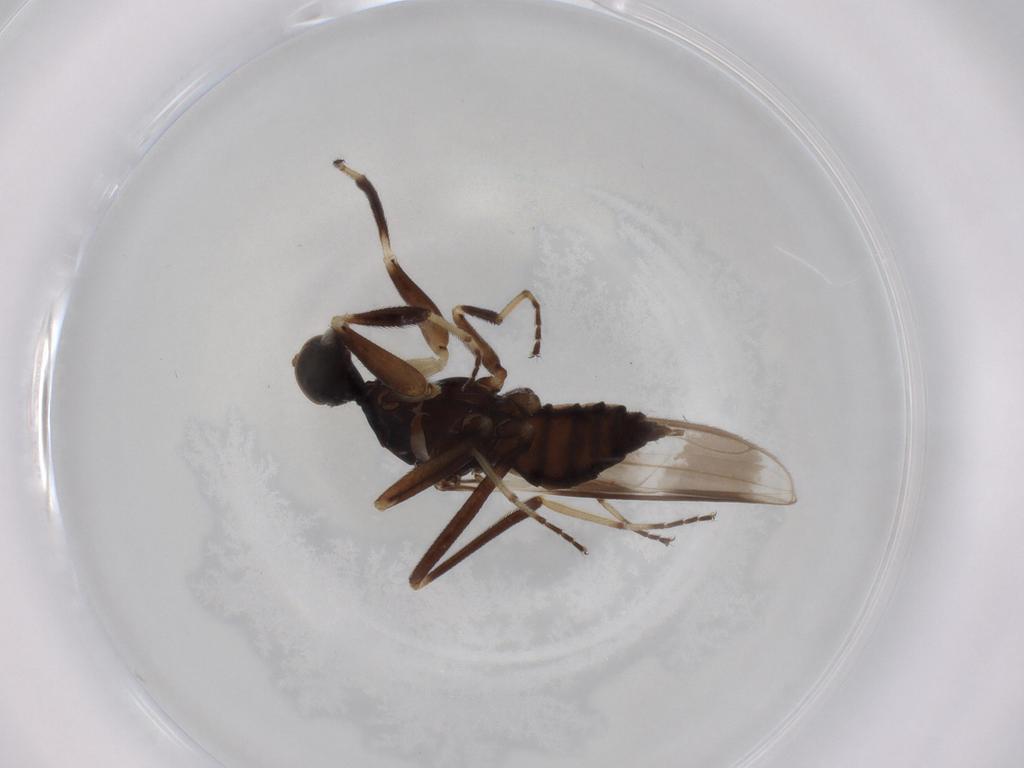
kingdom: Animalia
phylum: Arthropoda
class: Insecta
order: Diptera
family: Hybotidae
